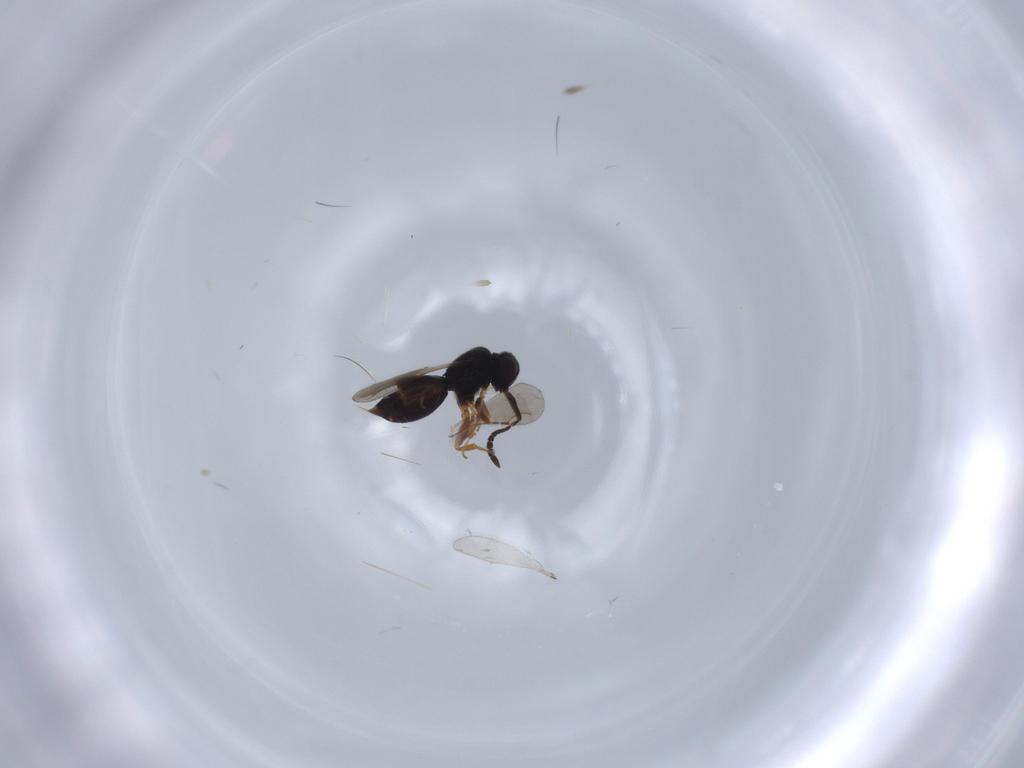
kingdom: Animalia
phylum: Arthropoda
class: Insecta
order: Hymenoptera
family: Ceraphronidae
